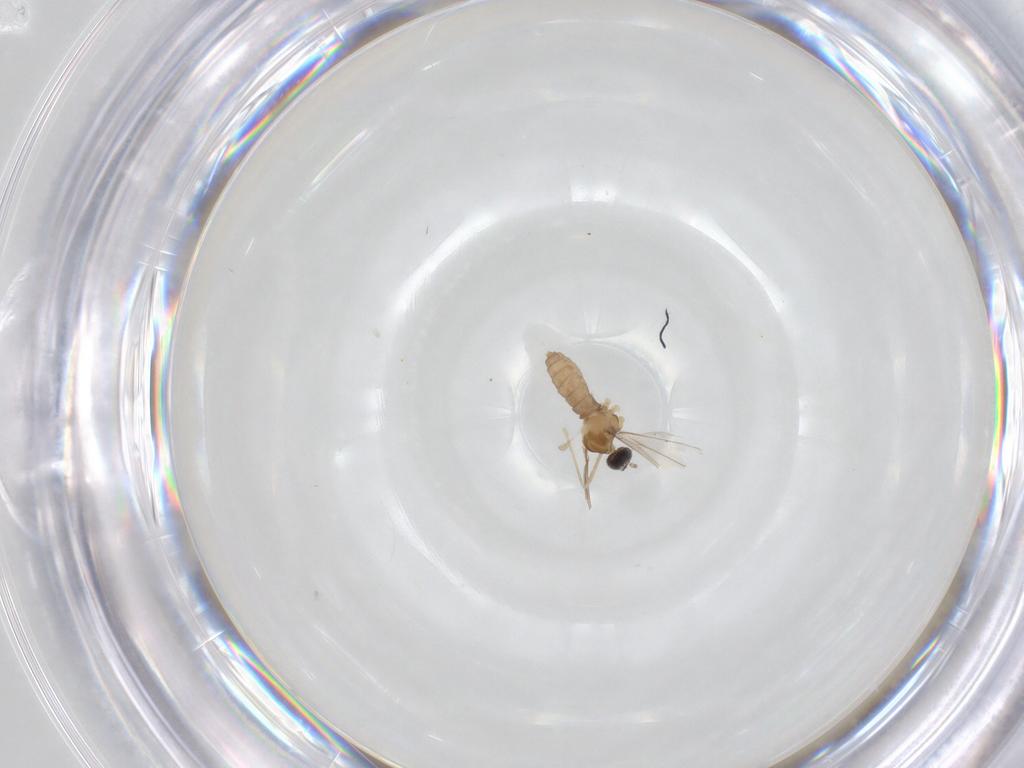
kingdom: Animalia
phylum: Arthropoda
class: Insecta
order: Diptera
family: Cecidomyiidae
